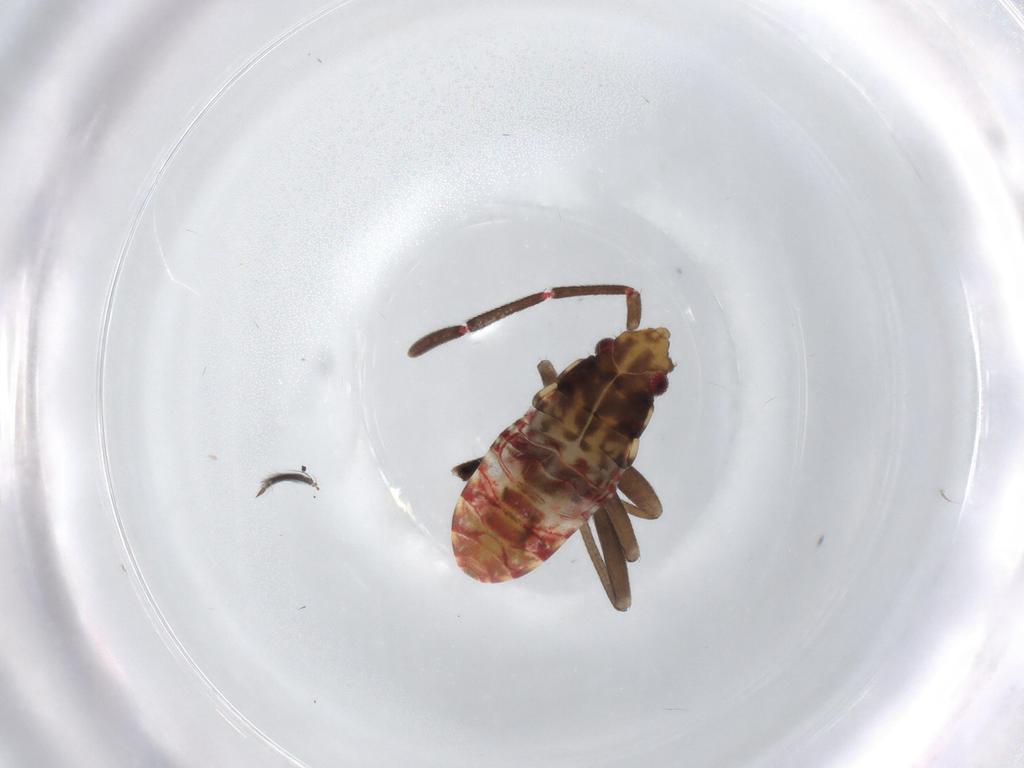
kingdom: Animalia
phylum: Arthropoda
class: Insecta
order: Hemiptera
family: Rhyparochromidae
